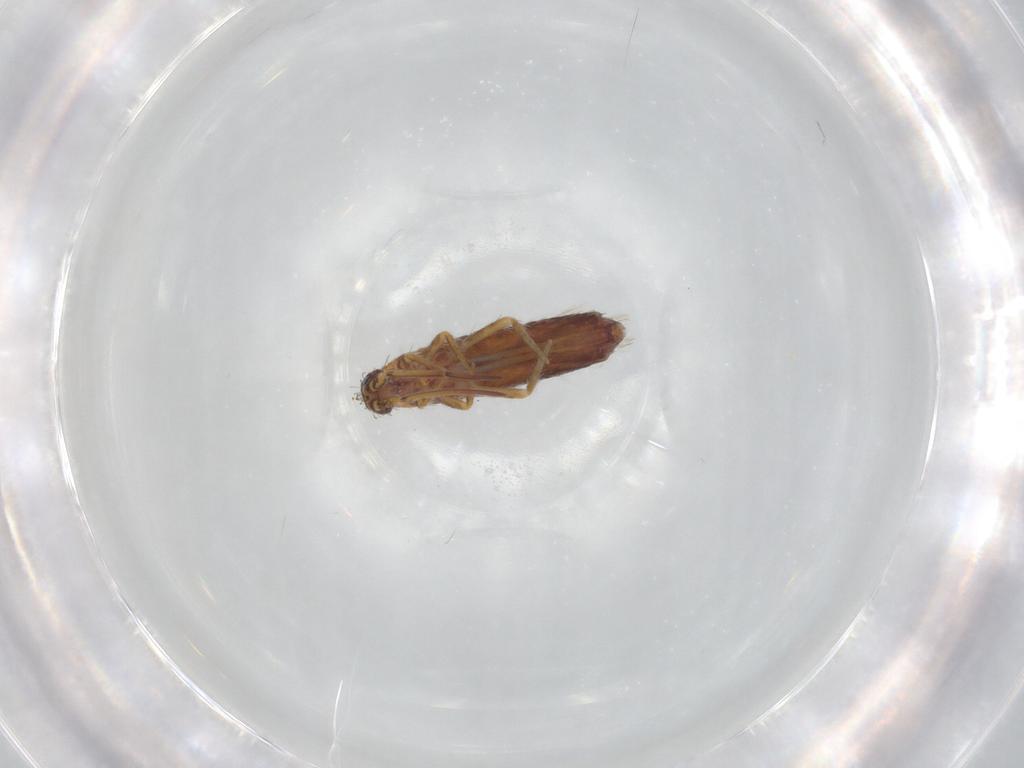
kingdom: Animalia
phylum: Arthropoda
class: Collembola
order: Entomobryomorpha
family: Entomobryidae
